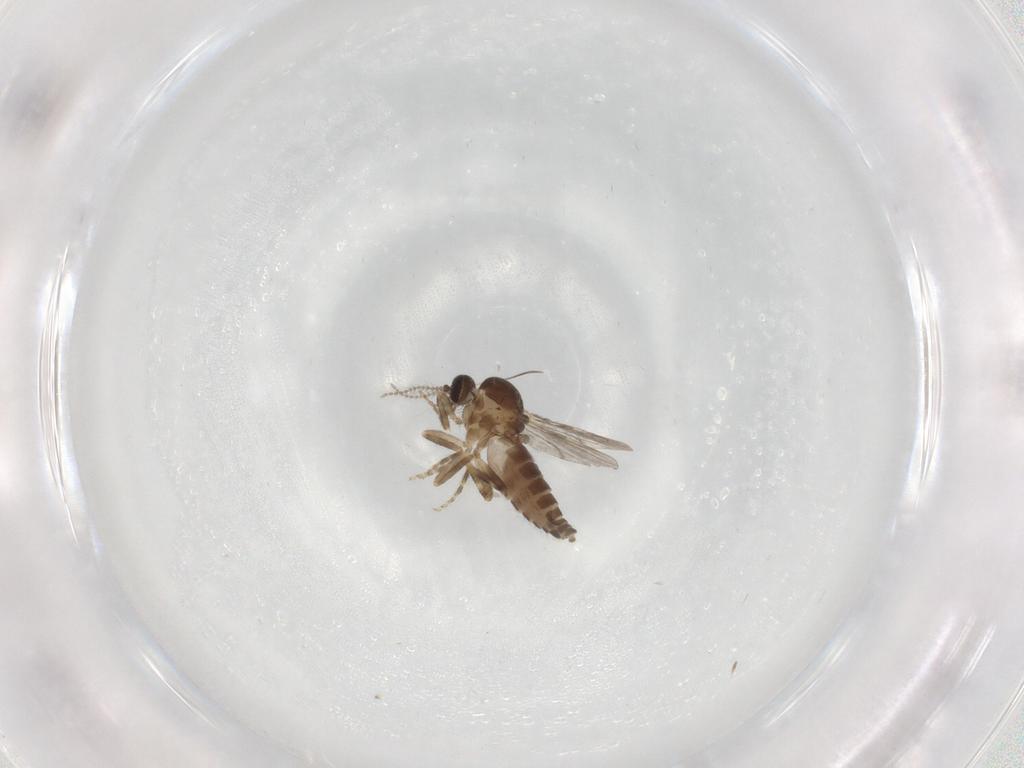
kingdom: Animalia
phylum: Arthropoda
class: Insecta
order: Diptera
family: Ceratopogonidae
